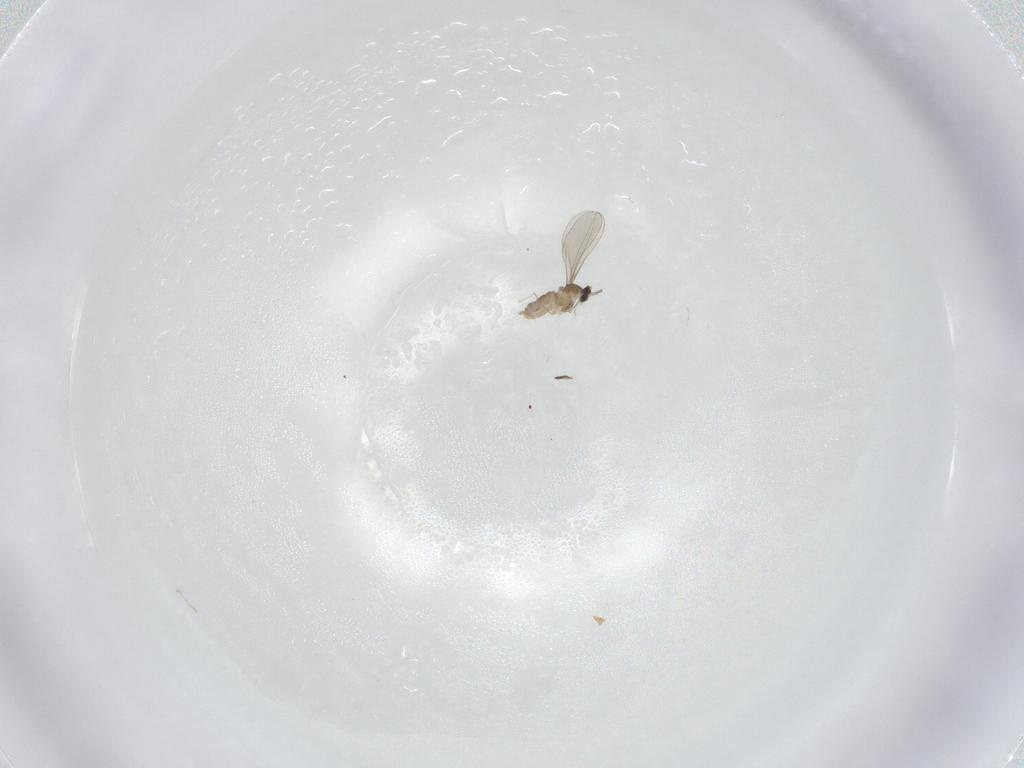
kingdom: Animalia
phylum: Arthropoda
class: Insecta
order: Diptera
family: Cecidomyiidae
